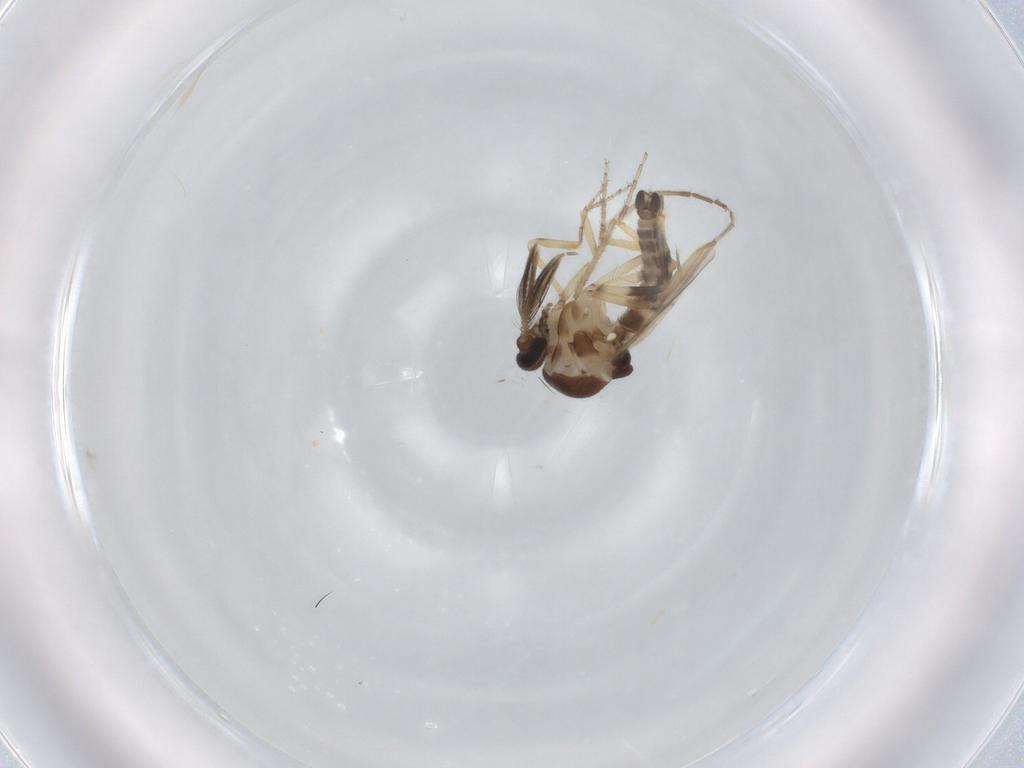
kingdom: Animalia
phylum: Arthropoda
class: Insecta
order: Diptera
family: Ceratopogonidae
